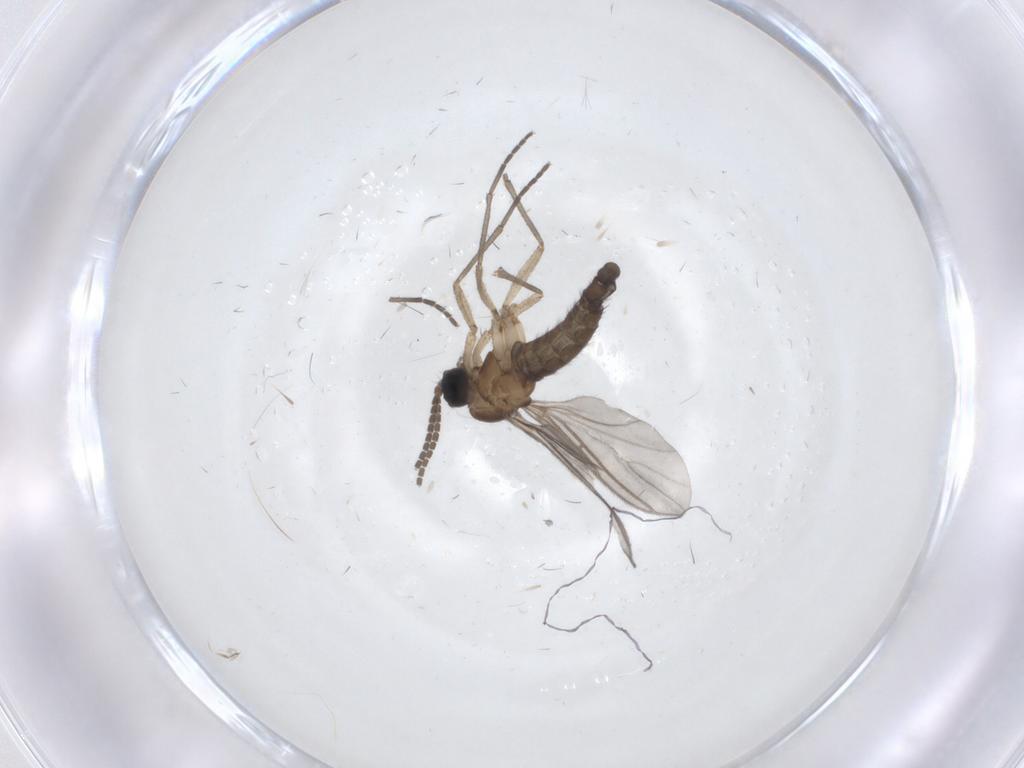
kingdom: Animalia
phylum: Arthropoda
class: Insecta
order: Diptera
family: Sciaridae
